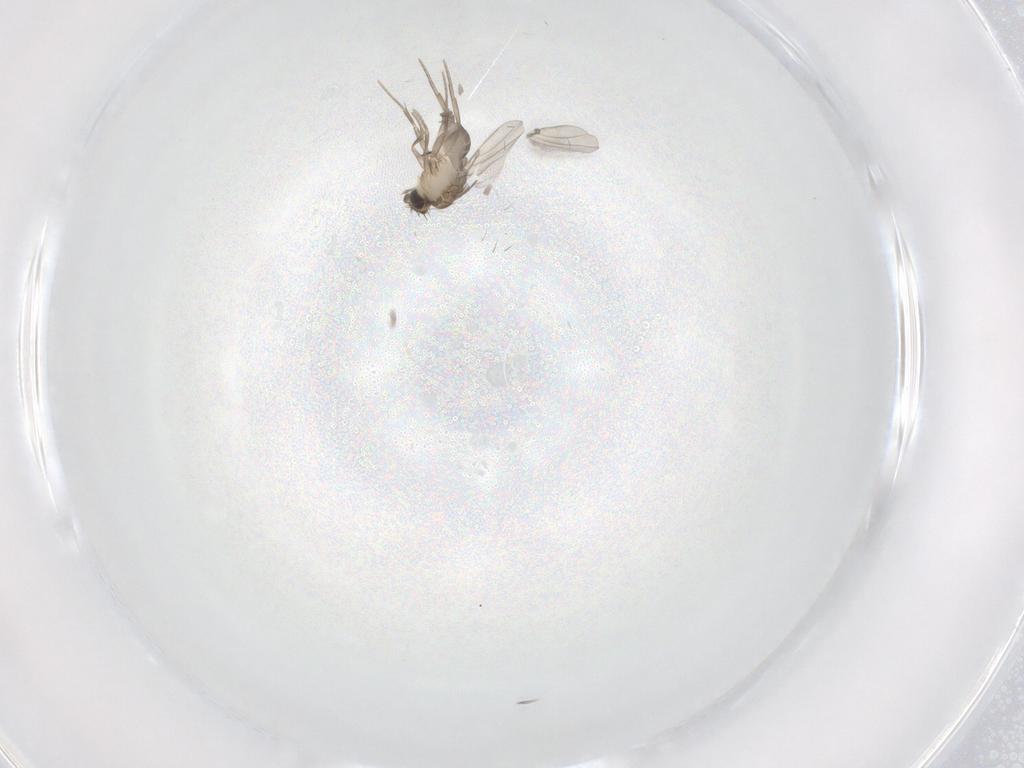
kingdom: Animalia
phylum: Arthropoda
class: Insecta
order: Diptera
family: Phoridae
